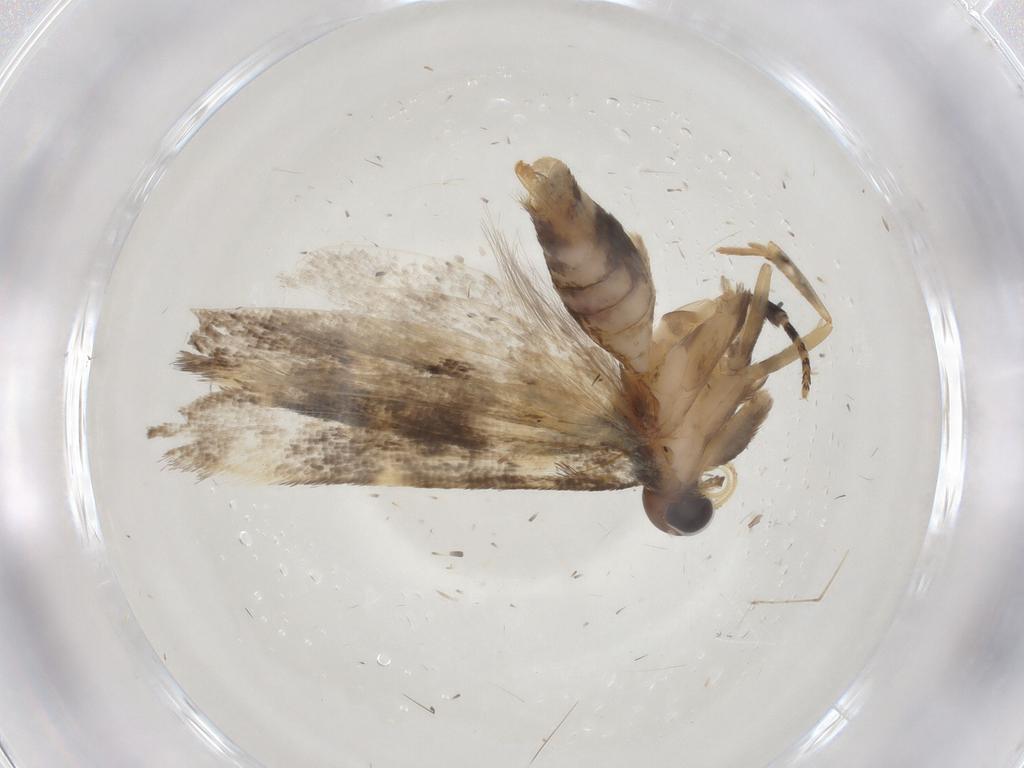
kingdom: Animalia
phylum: Arthropoda
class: Insecta
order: Lepidoptera
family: Gelechiidae
